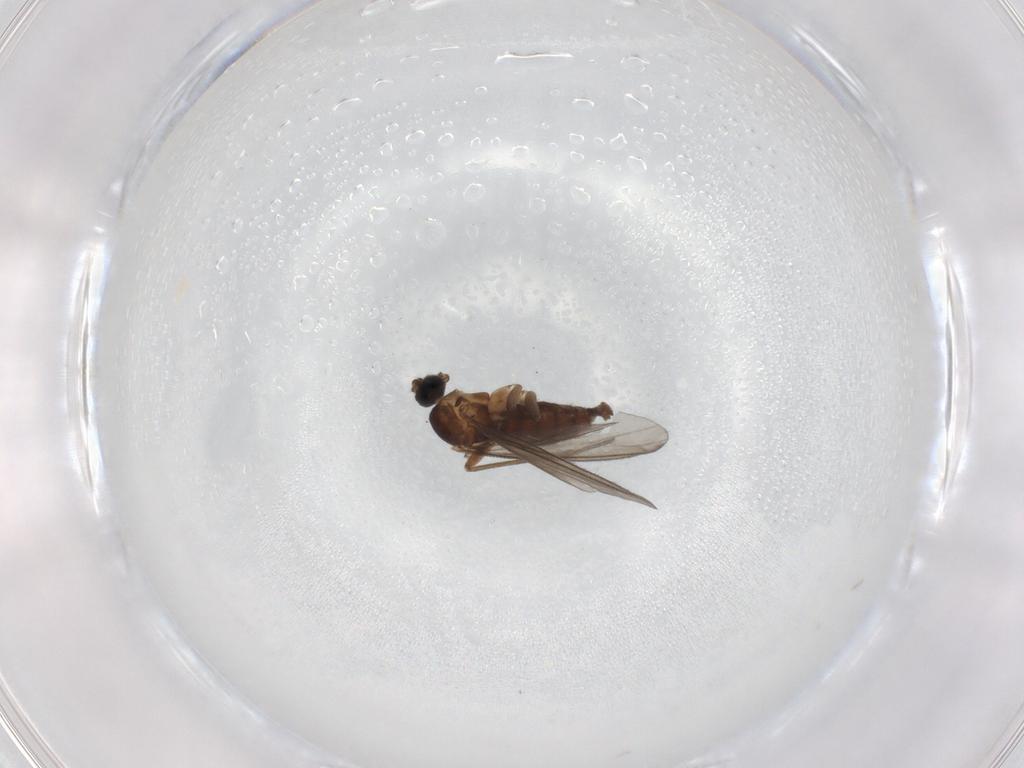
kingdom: Animalia
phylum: Arthropoda
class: Insecta
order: Diptera
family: Sciaridae
